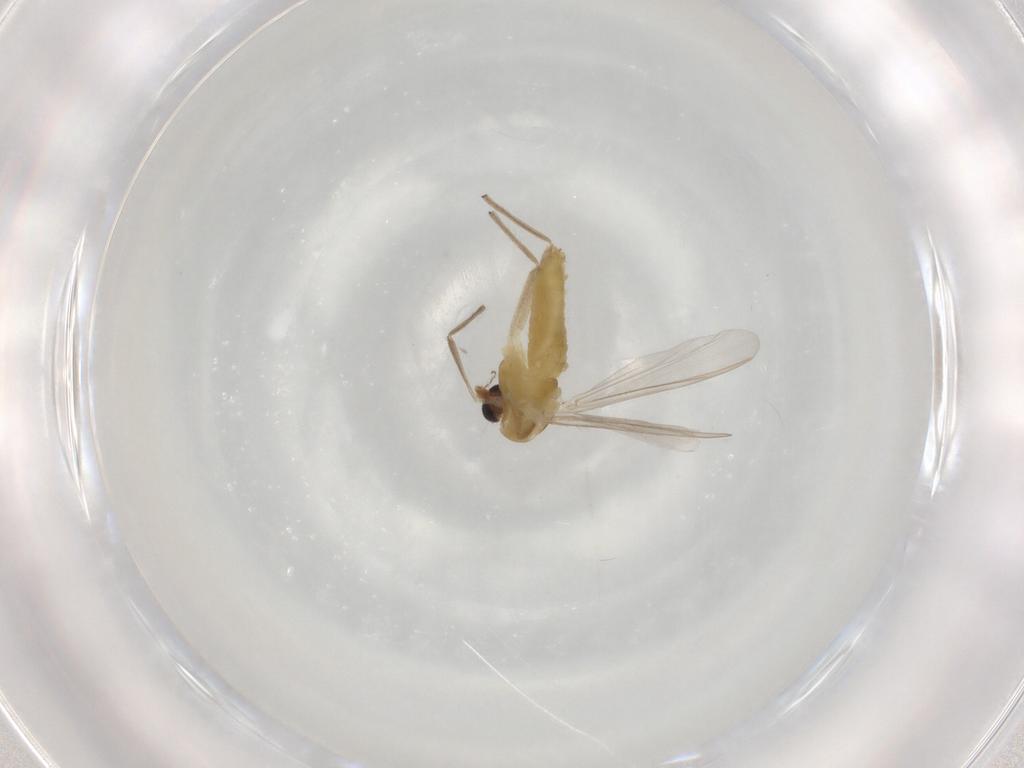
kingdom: Animalia
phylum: Arthropoda
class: Insecta
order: Diptera
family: Chironomidae
